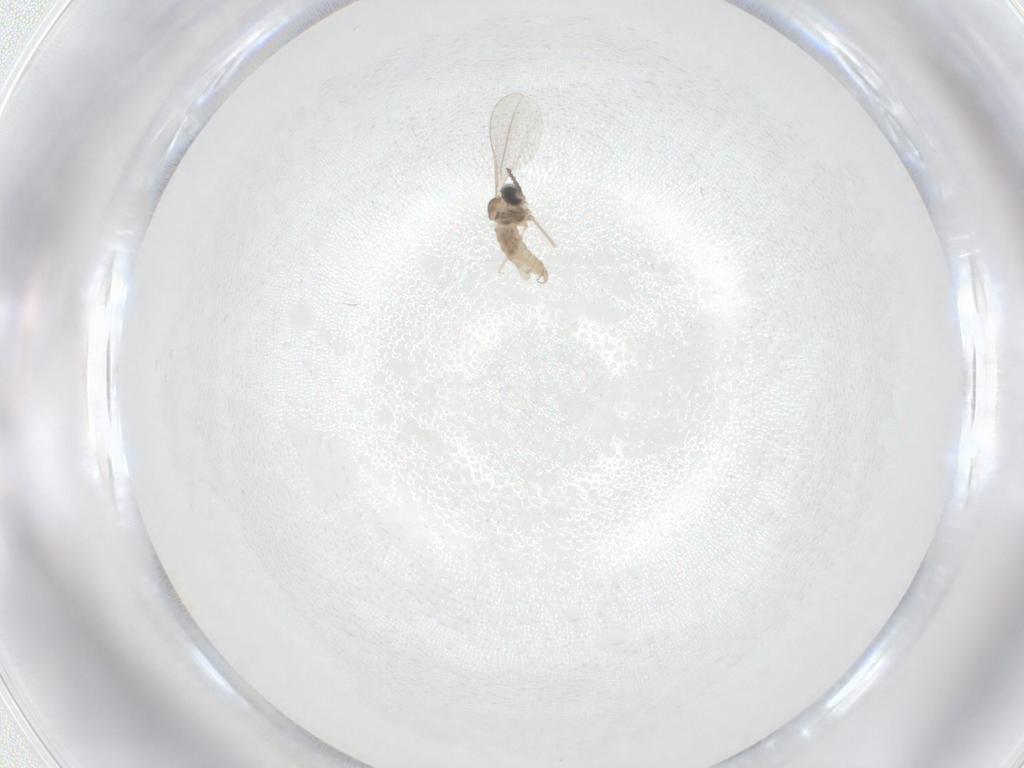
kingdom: Animalia
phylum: Arthropoda
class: Insecta
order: Diptera
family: Cecidomyiidae
